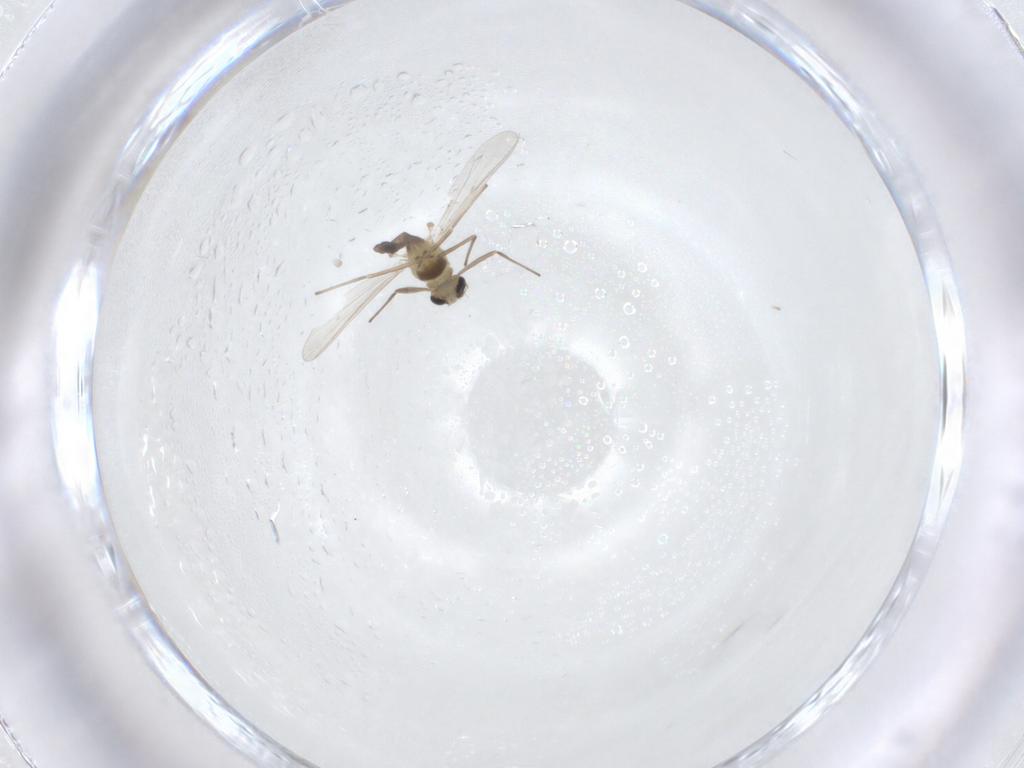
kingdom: Animalia
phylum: Arthropoda
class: Insecta
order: Diptera
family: Chironomidae
